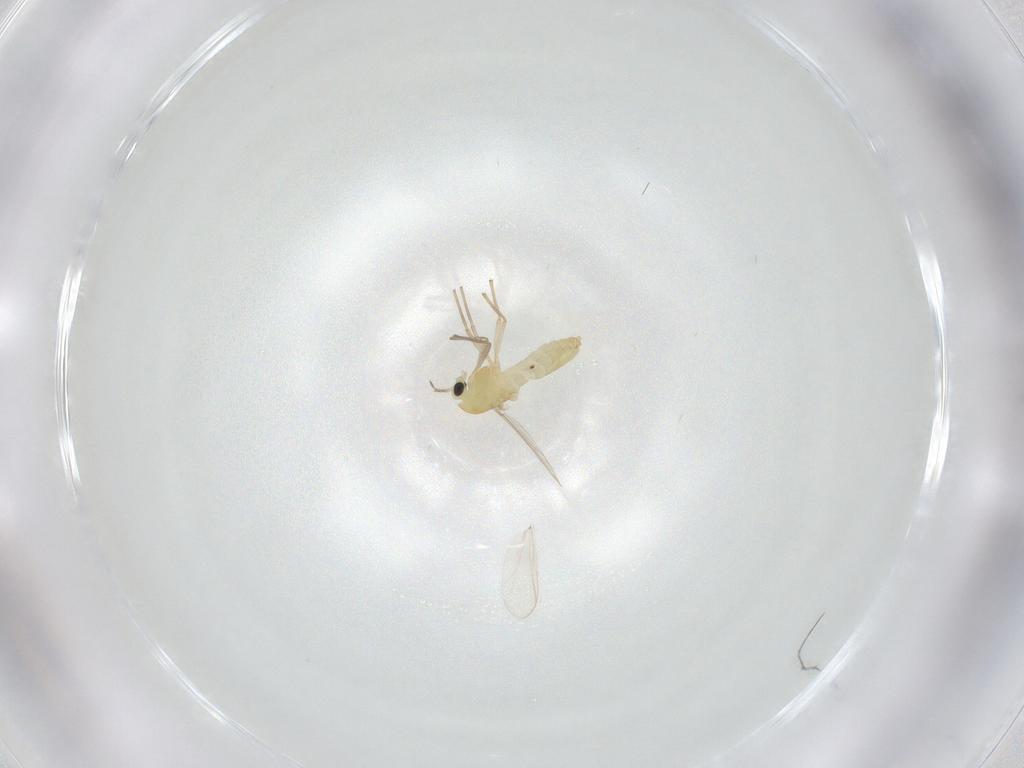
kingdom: Animalia
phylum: Arthropoda
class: Insecta
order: Diptera
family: Chironomidae
